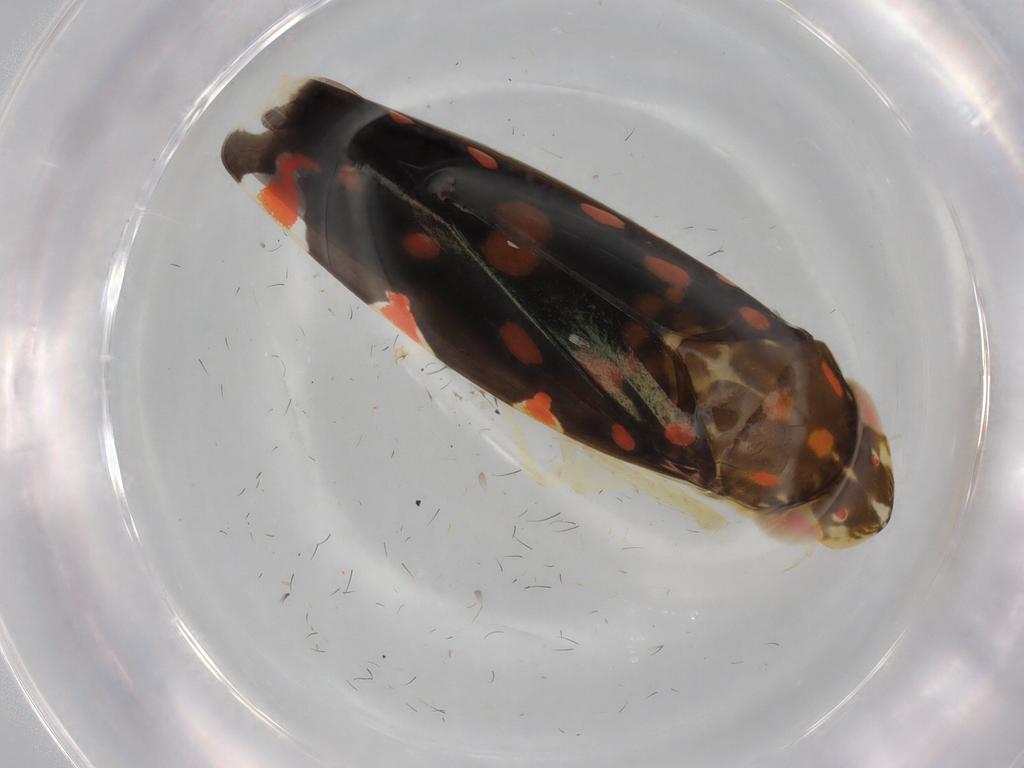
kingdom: Animalia
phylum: Arthropoda
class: Insecta
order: Hemiptera
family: Cicadellidae
